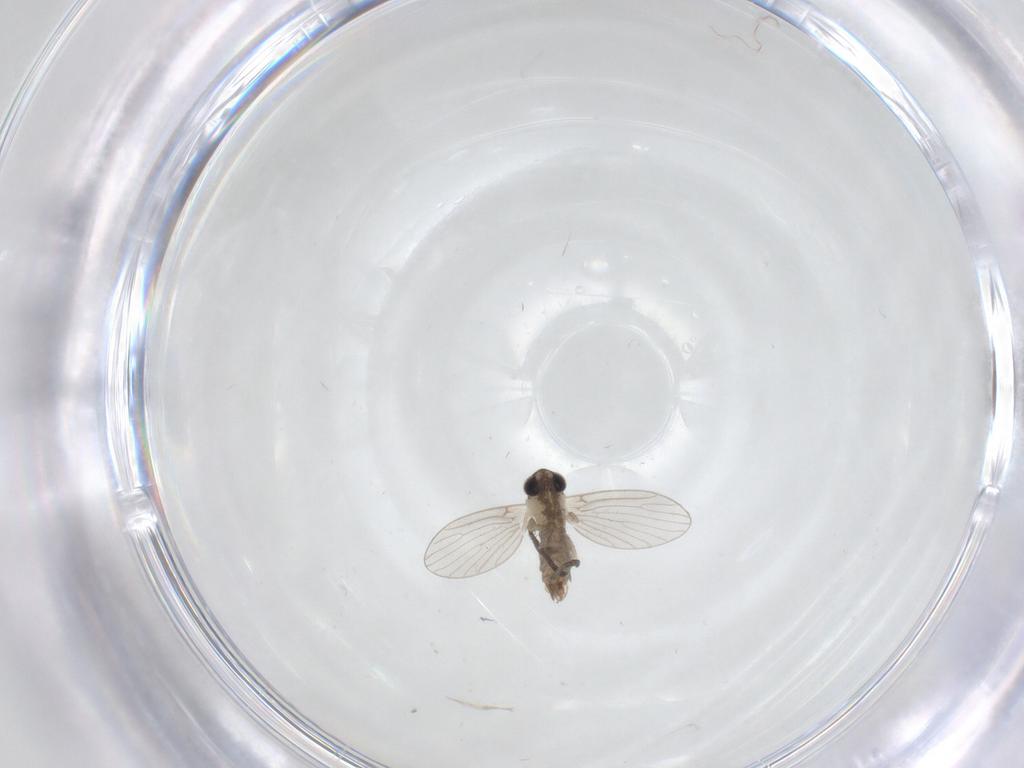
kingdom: Animalia
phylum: Arthropoda
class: Insecta
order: Diptera
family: Psychodidae
